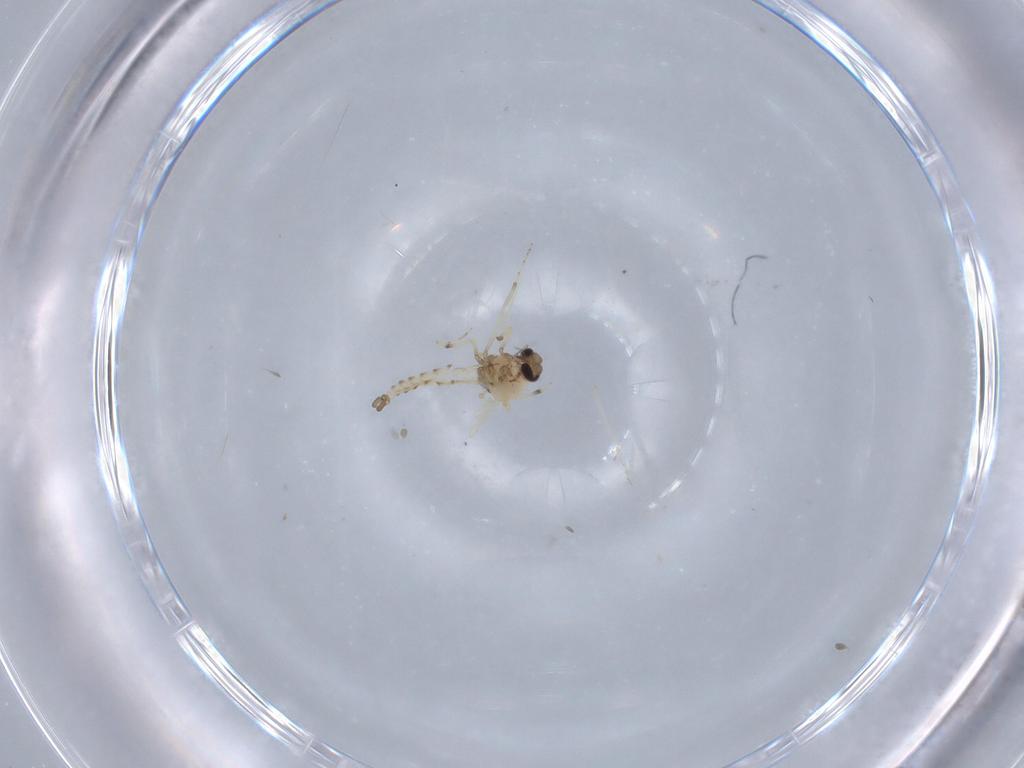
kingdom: Animalia
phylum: Arthropoda
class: Insecta
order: Diptera
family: Cecidomyiidae
